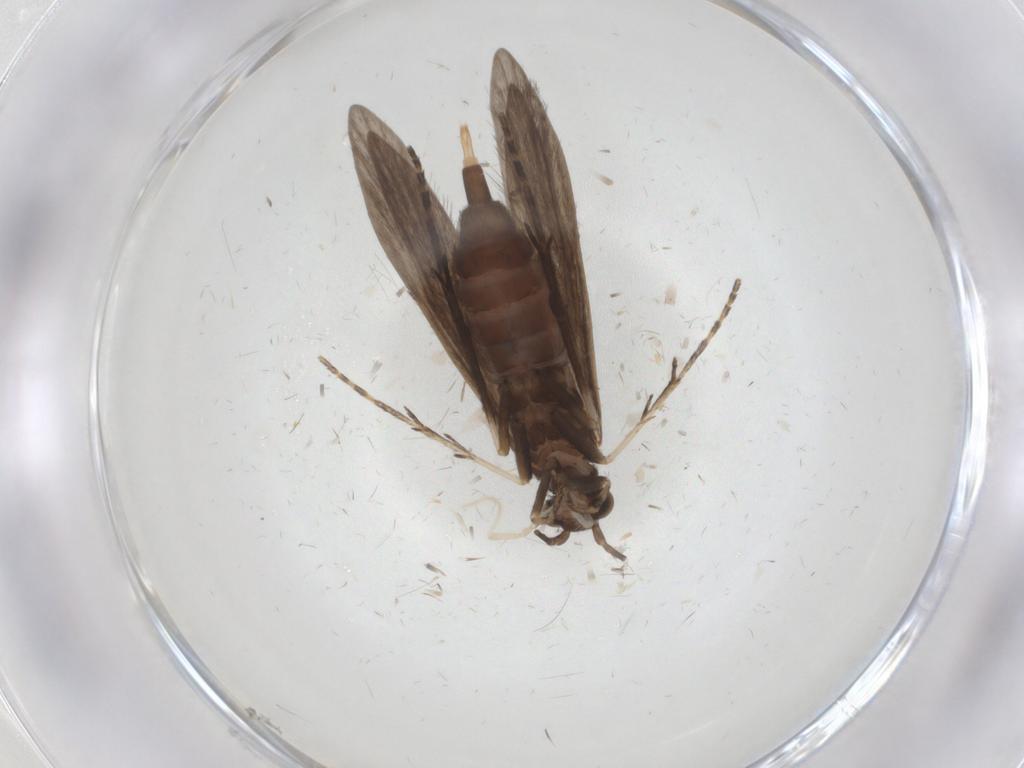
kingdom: Animalia
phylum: Arthropoda
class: Insecta
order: Trichoptera
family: Xiphocentronidae
